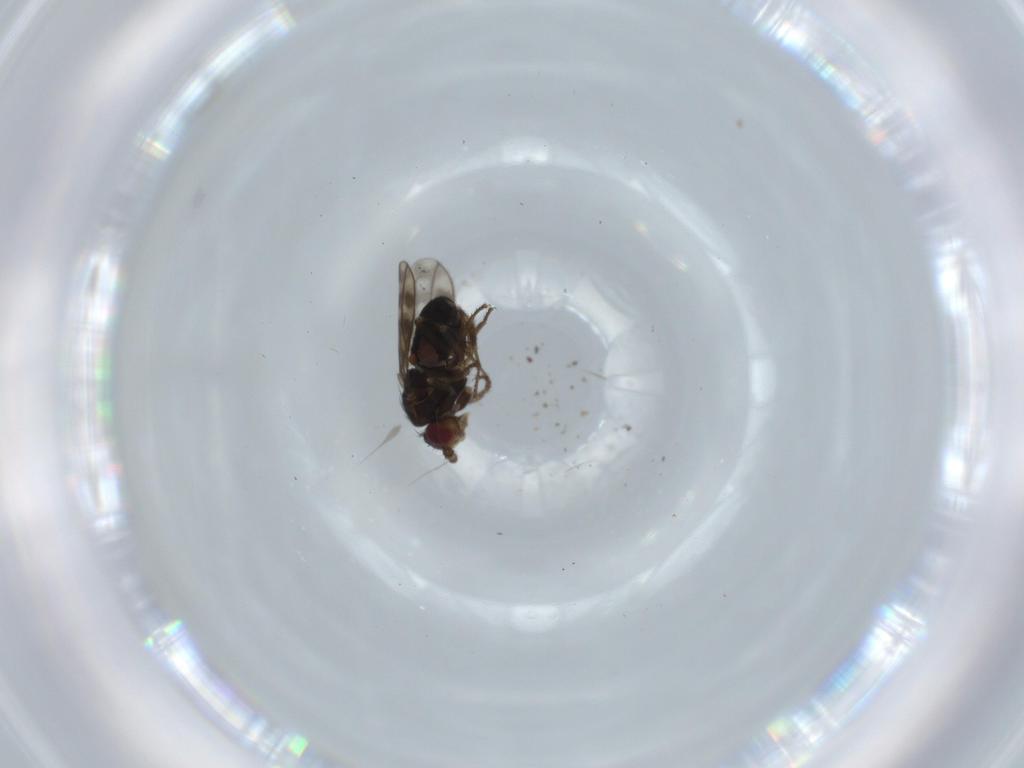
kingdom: Animalia
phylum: Arthropoda
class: Insecta
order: Diptera
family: Sphaeroceridae
